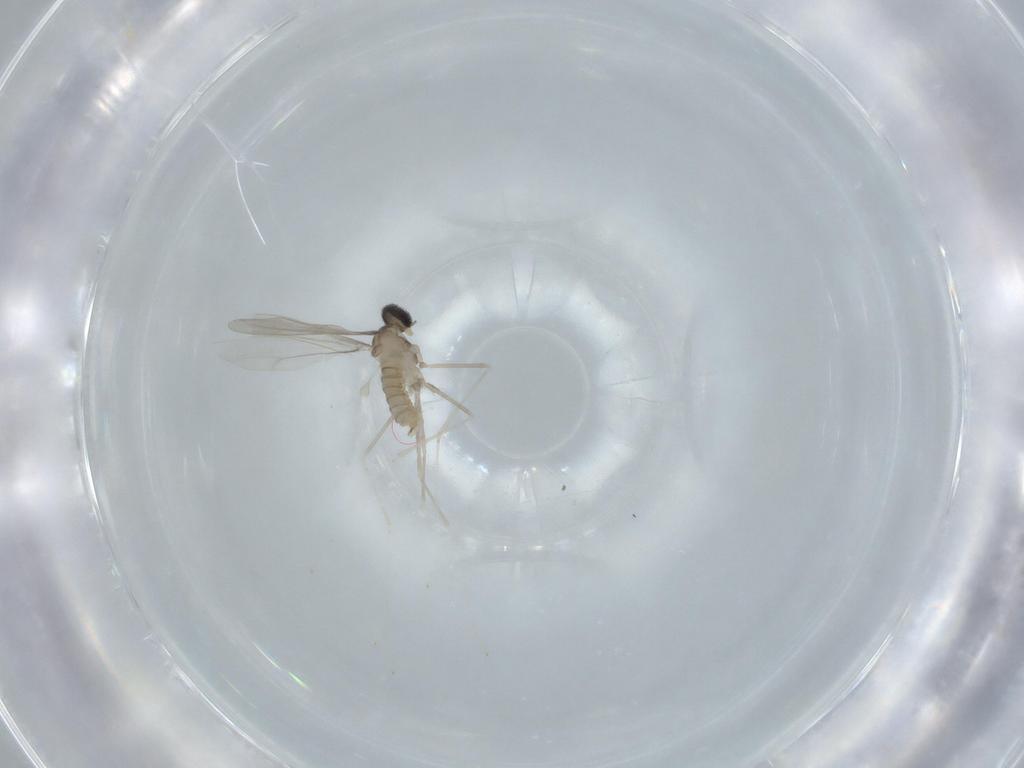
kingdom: Animalia
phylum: Arthropoda
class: Insecta
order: Diptera
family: Cecidomyiidae
